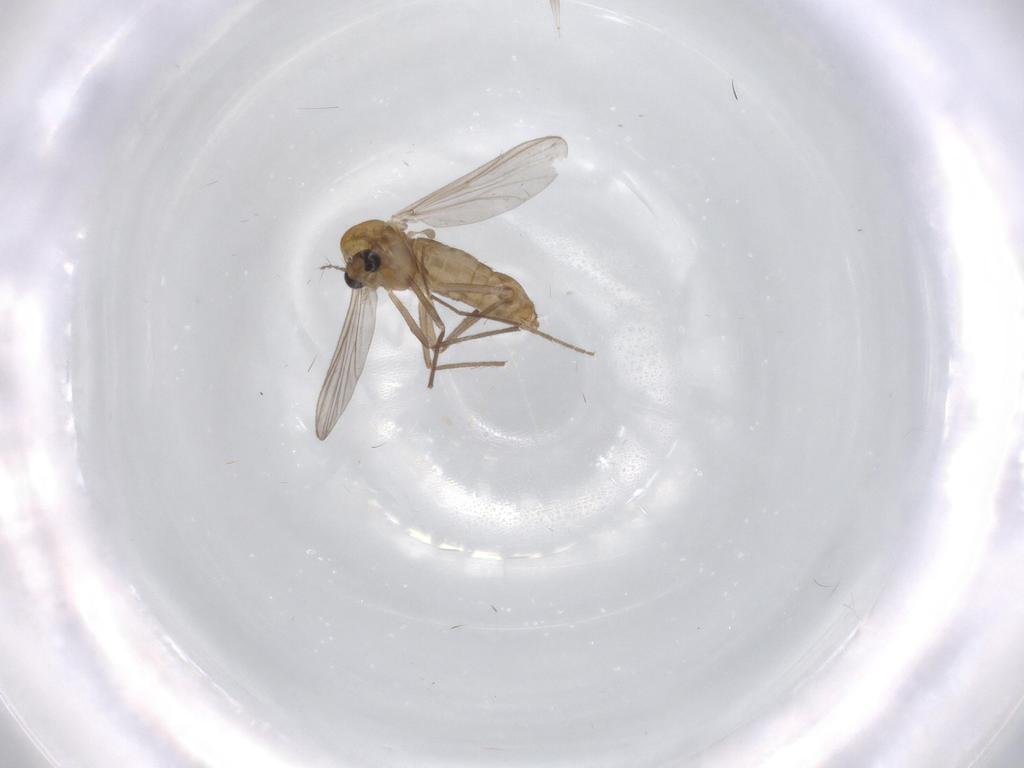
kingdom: Animalia
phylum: Arthropoda
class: Insecta
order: Diptera
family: Chironomidae
